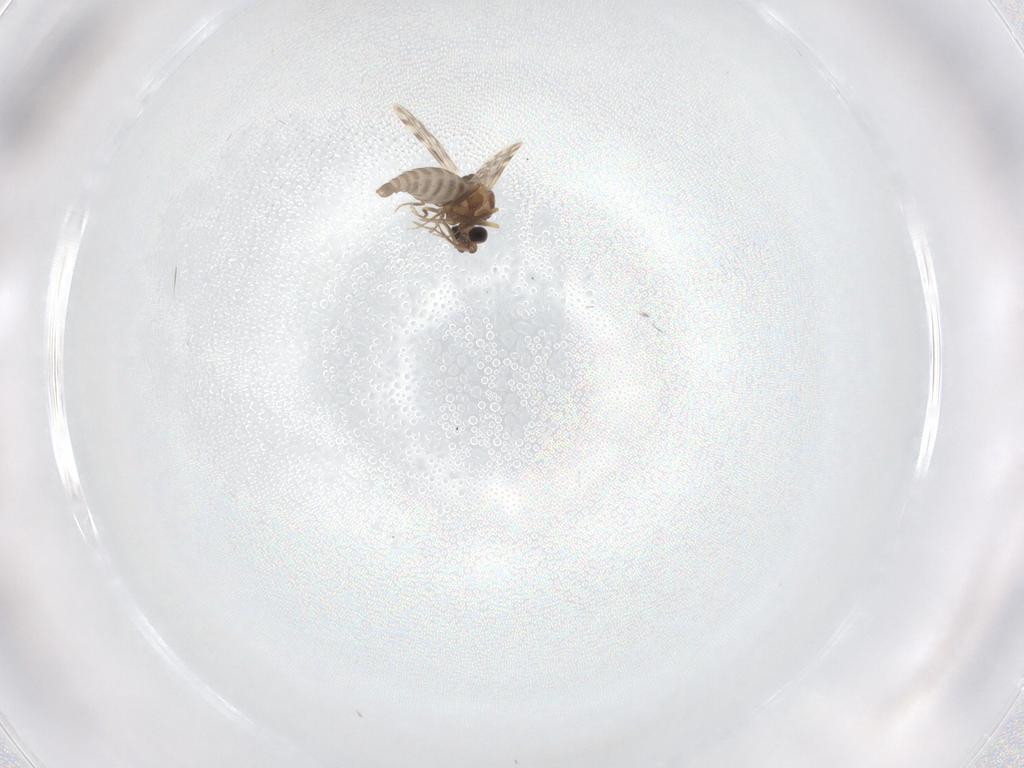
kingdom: Animalia
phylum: Arthropoda
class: Insecta
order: Diptera
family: Ceratopogonidae
